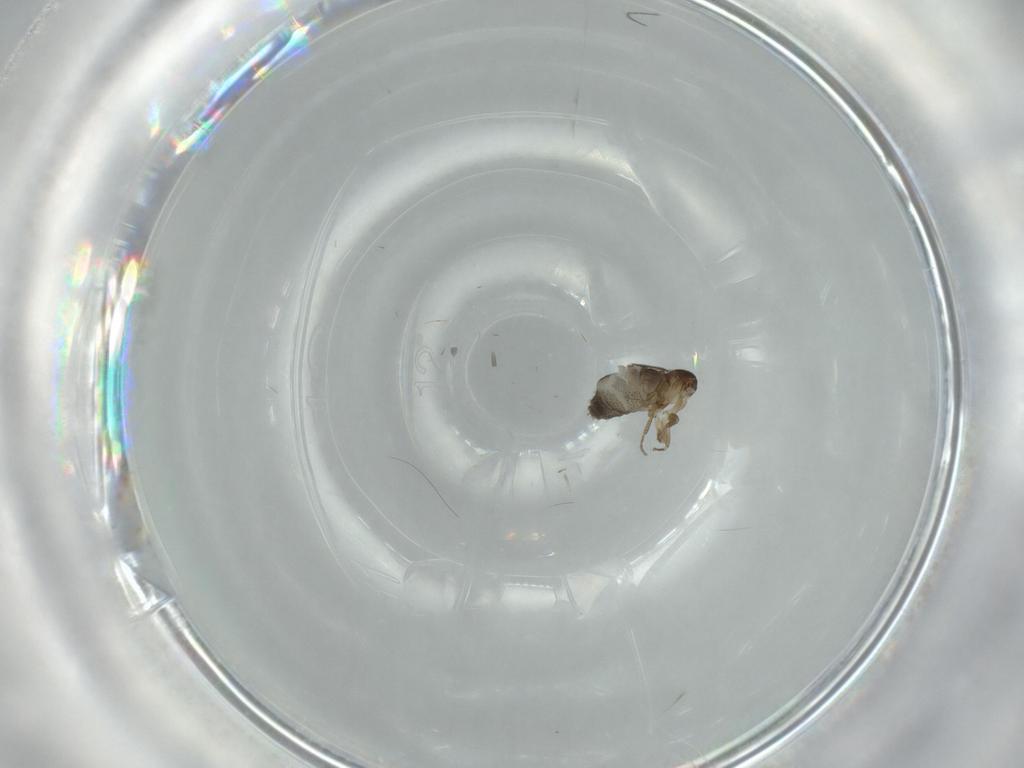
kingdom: Animalia
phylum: Arthropoda
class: Insecta
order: Diptera
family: Phoridae
